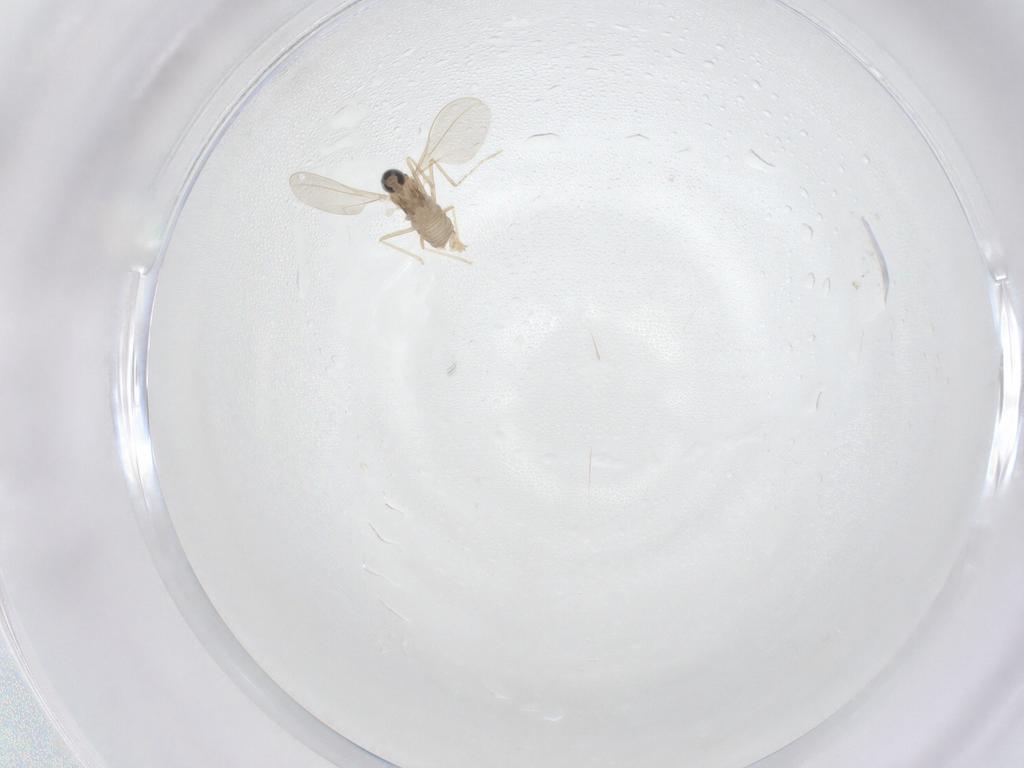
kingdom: Animalia
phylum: Arthropoda
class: Insecta
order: Diptera
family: Cecidomyiidae
